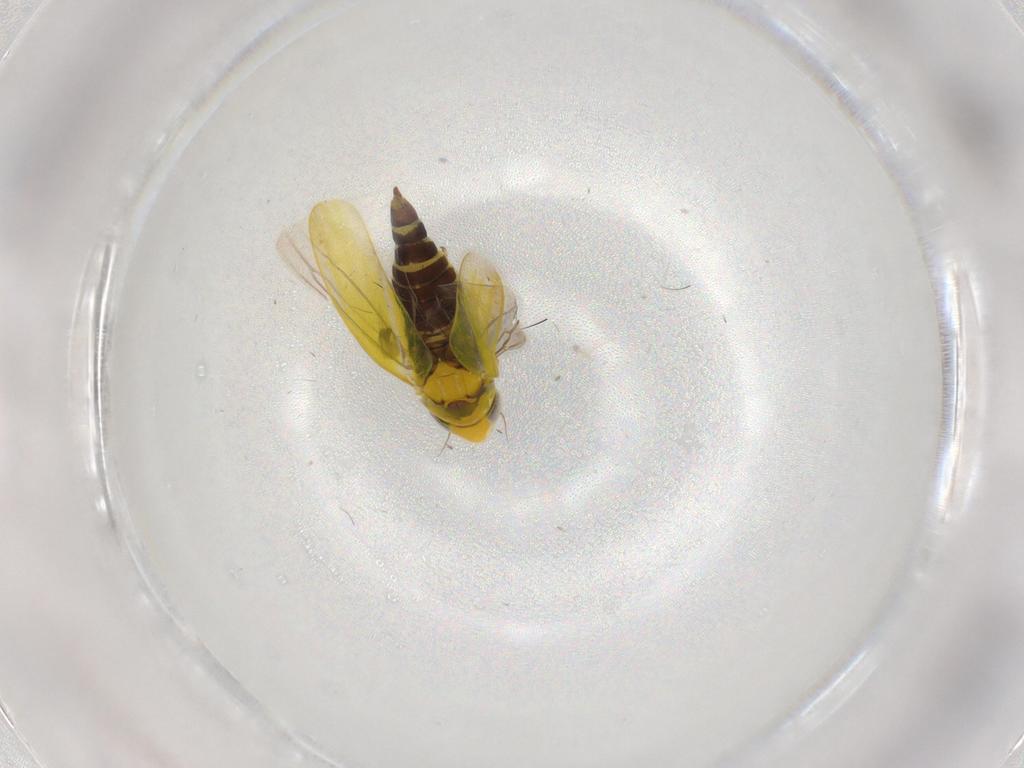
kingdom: Animalia
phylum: Arthropoda
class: Insecta
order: Hemiptera
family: Cicadellidae
